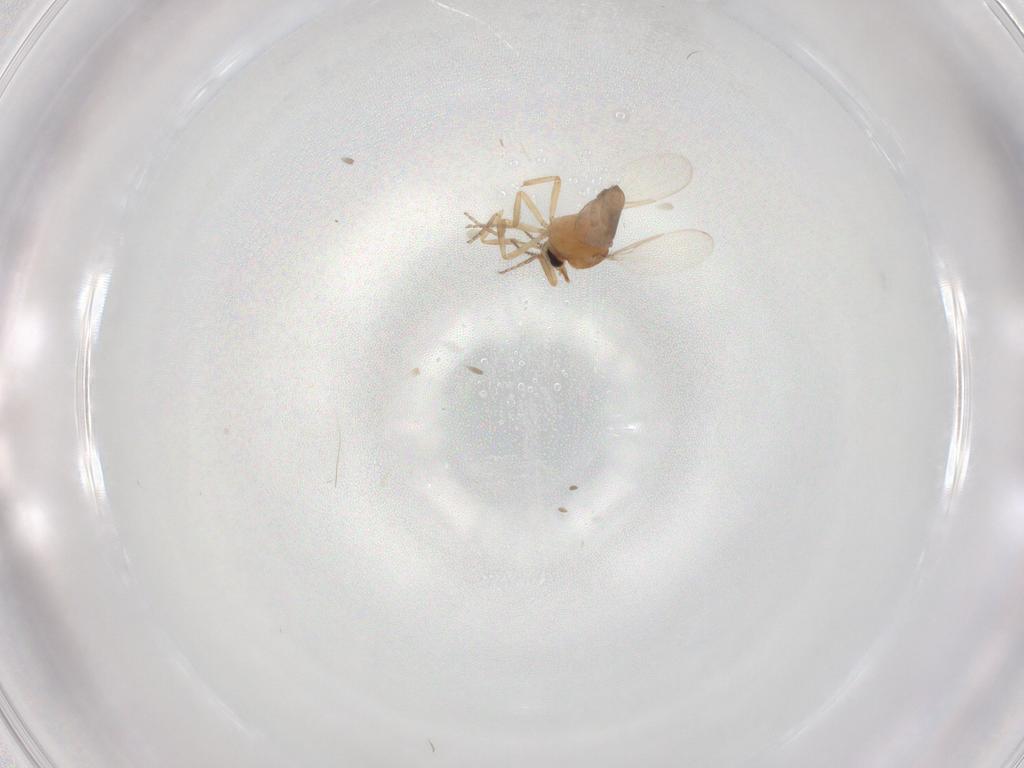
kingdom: Animalia
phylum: Arthropoda
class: Insecta
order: Diptera
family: Ceratopogonidae
